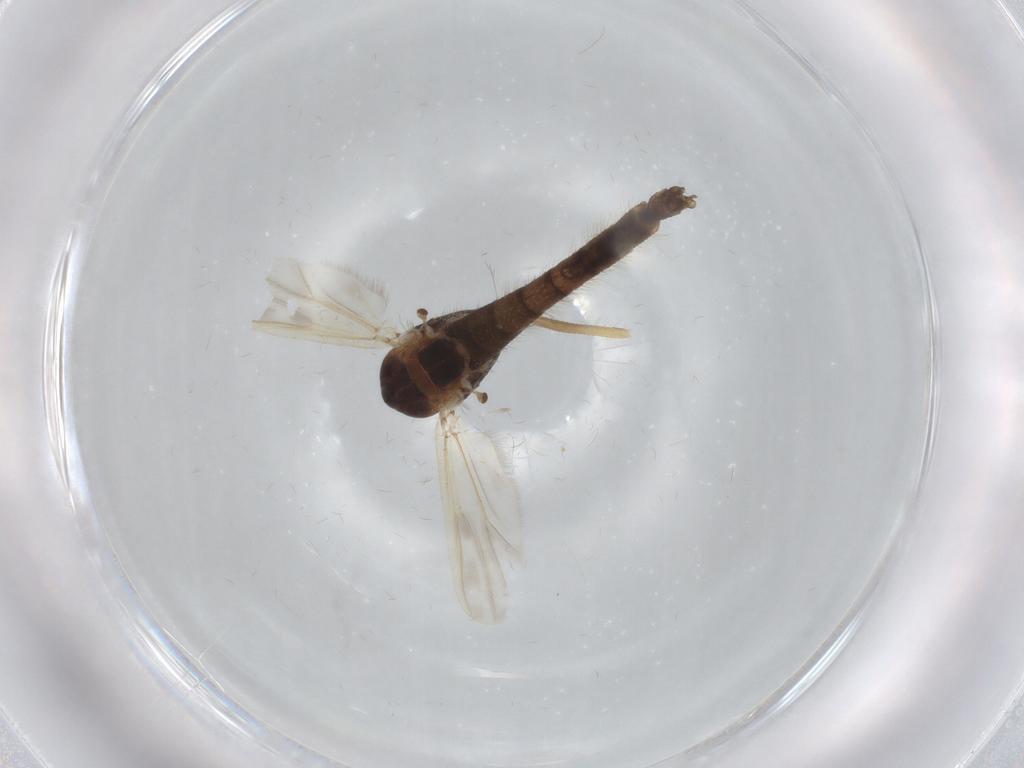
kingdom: Animalia
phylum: Arthropoda
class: Insecta
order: Diptera
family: Chironomidae
